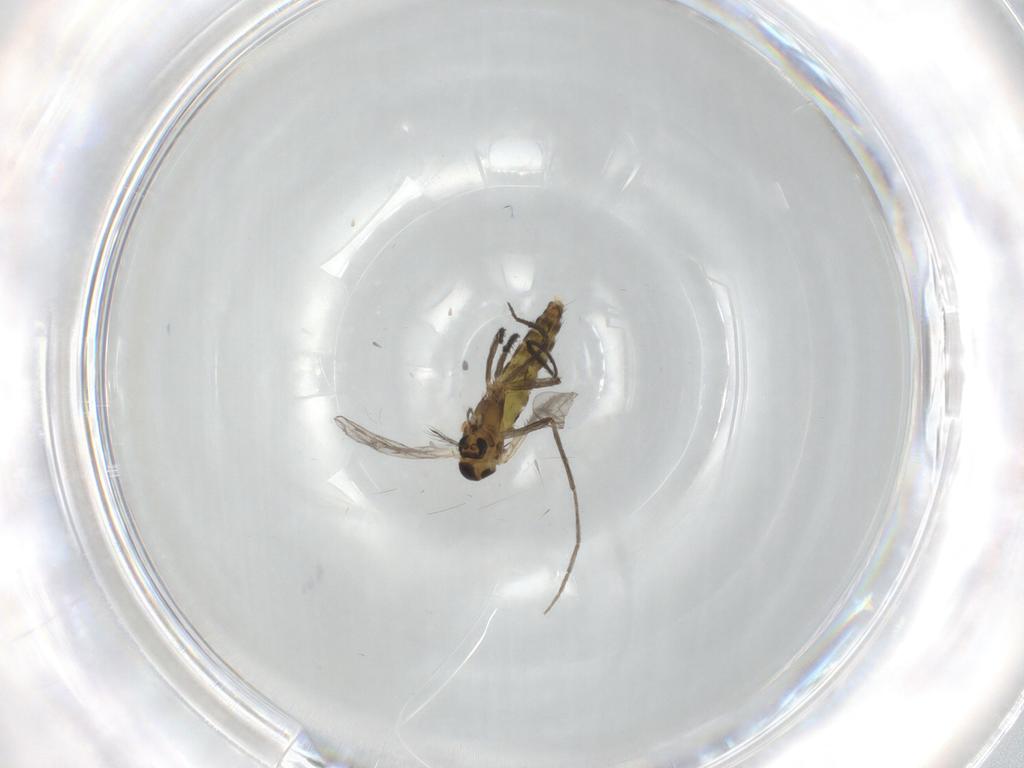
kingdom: Animalia
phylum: Arthropoda
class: Insecta
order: Diptera
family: Chironomidae
